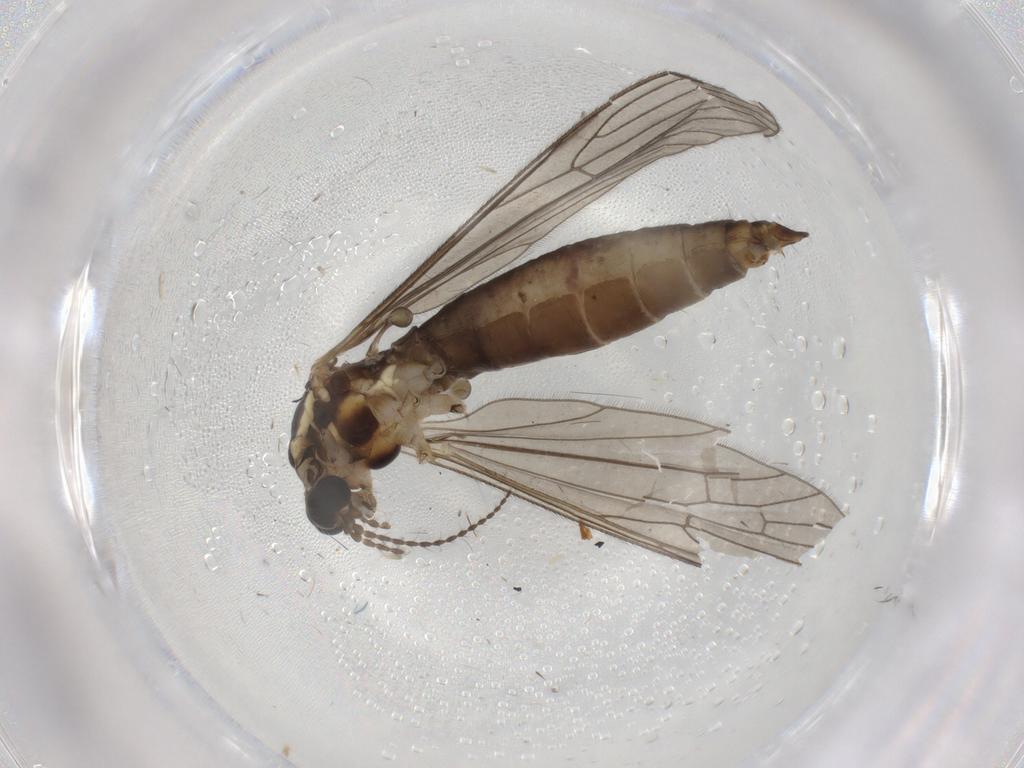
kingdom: Animalia
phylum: Arthropoda
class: Insecta
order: Diptera
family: Chironomidae
